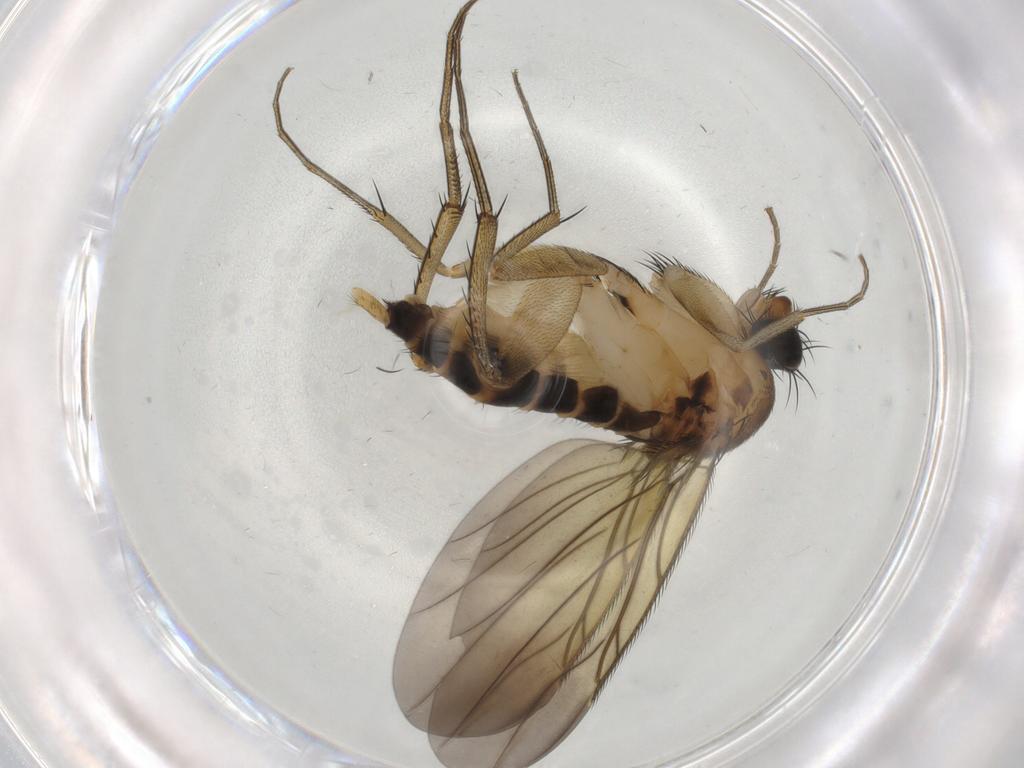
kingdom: Animalia
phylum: Arthropoda
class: Insecta
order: Diptera
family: Phoridae
